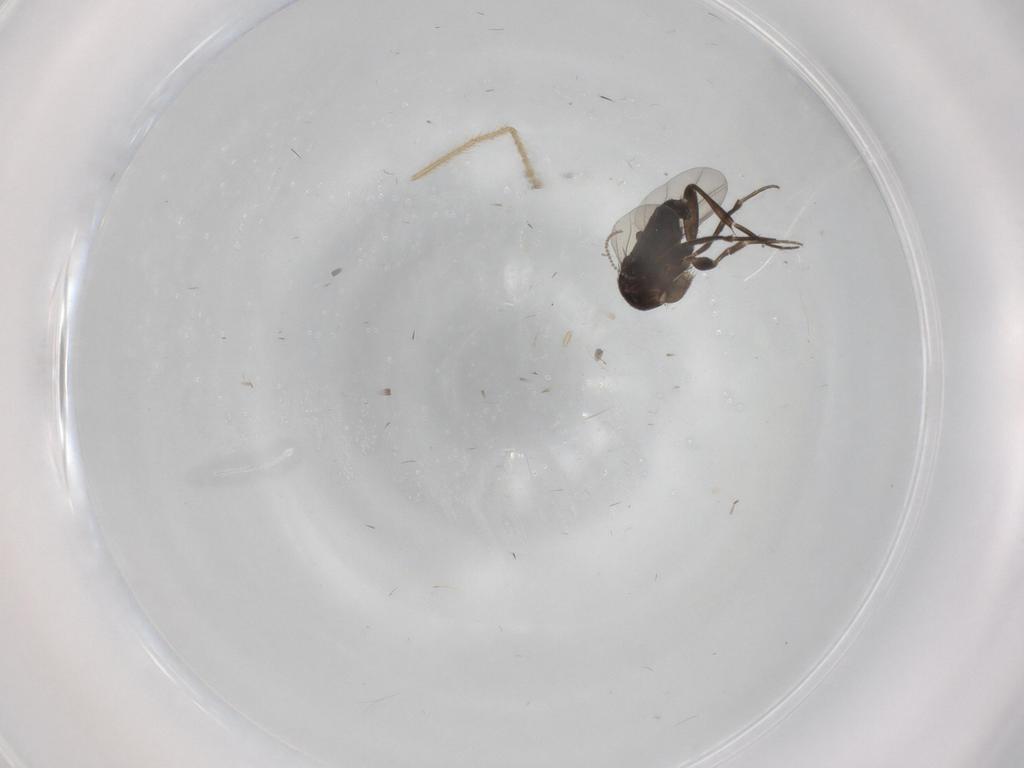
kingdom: Animalia
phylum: Arthropoda
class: Insecta
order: Diptera
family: Phoridae
